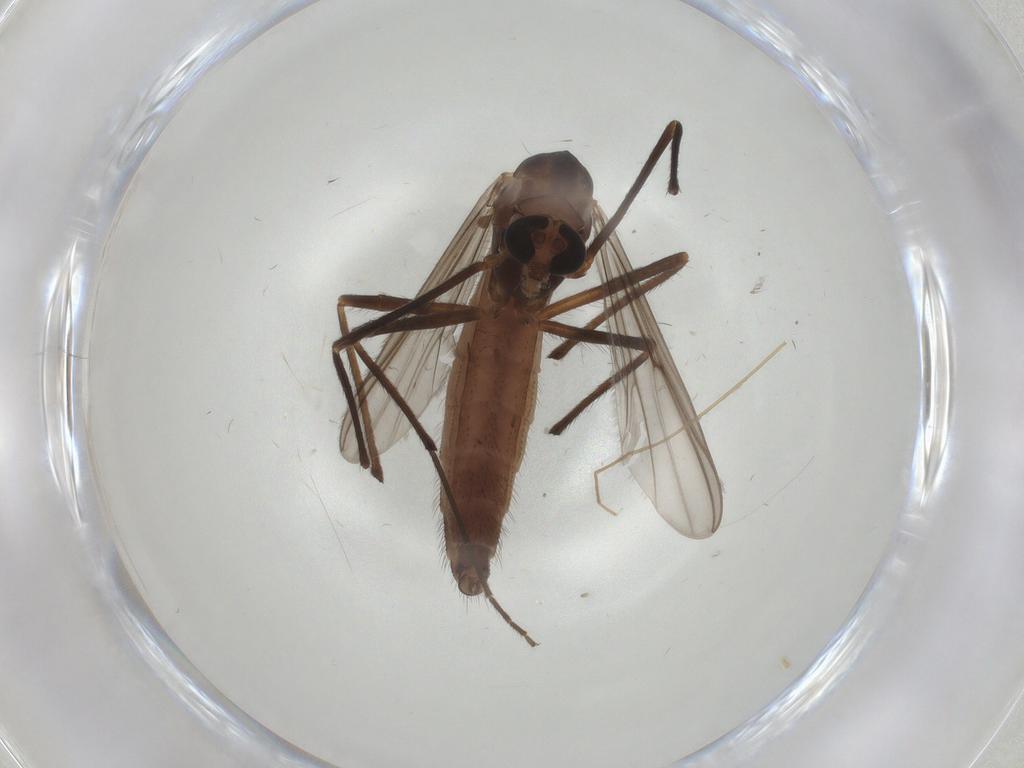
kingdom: Animalia
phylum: Arthropoda
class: Insecta
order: Diptera
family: Chironomidae
